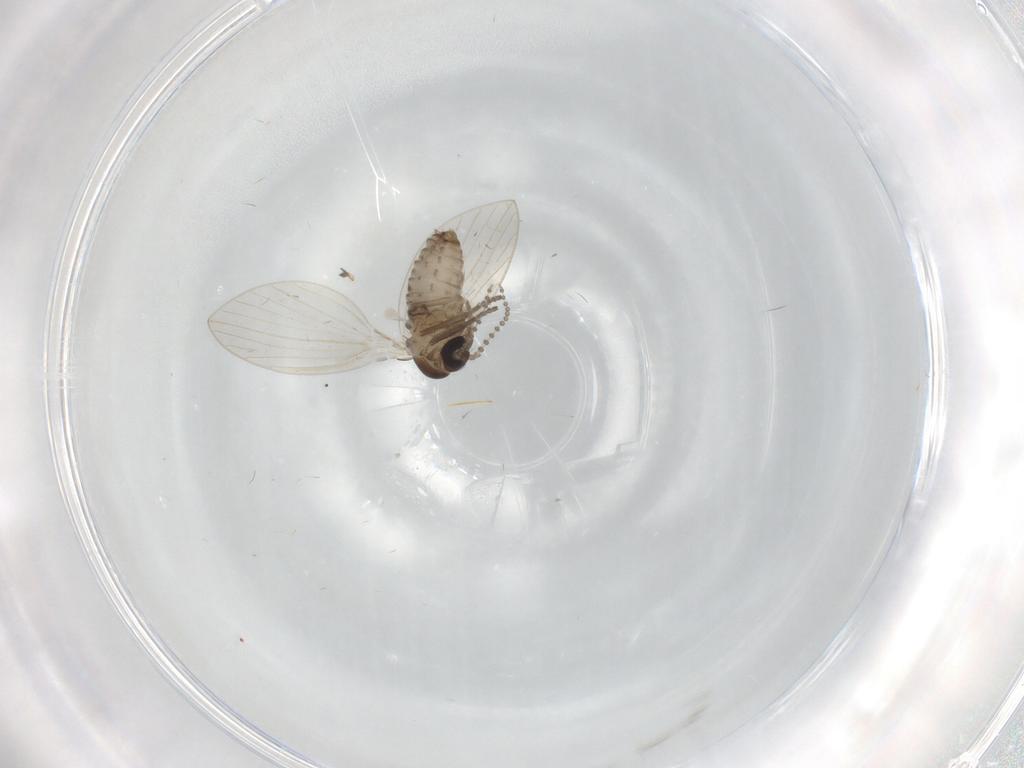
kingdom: Animalia
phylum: Arthropoda
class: Insecta
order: Diptera
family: Psychodidae
